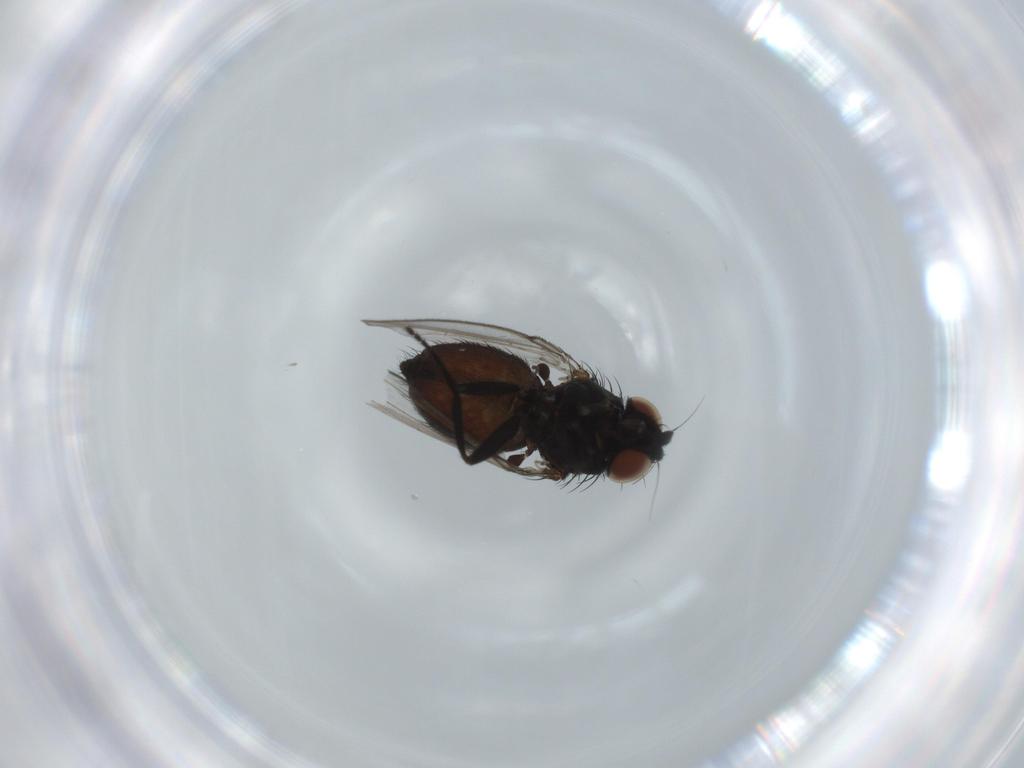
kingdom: Animalia
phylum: Arthropoda
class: Insecta
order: Diptera
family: Milichiidae
